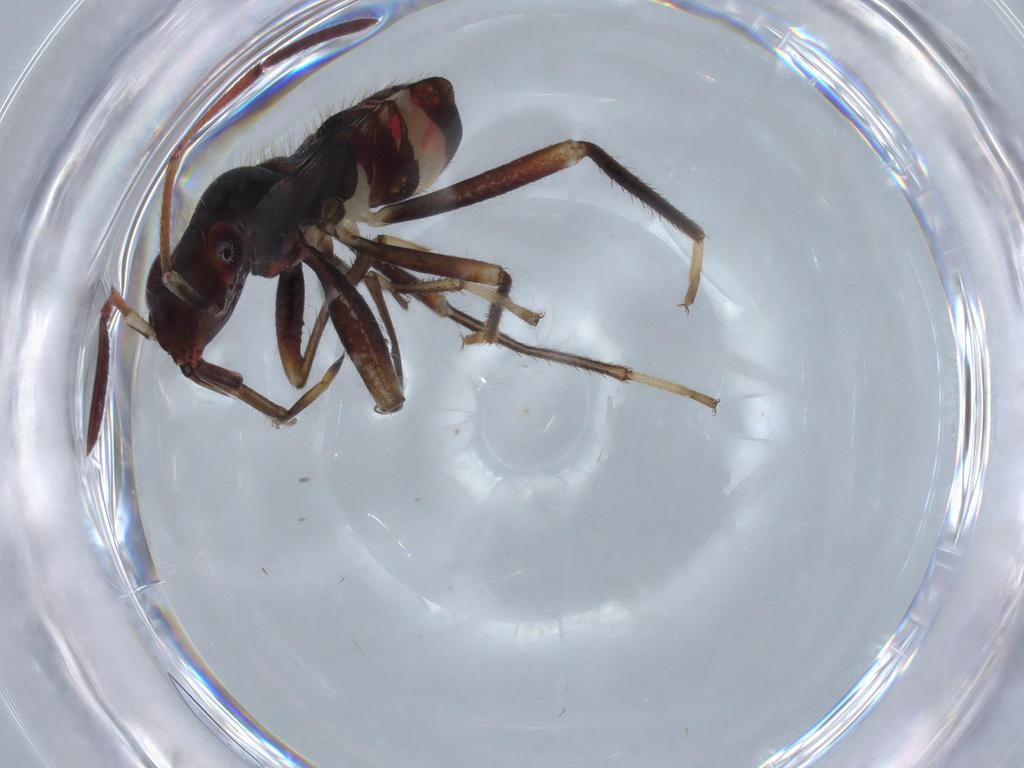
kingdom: Animalia
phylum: Arthropoda
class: Insecta
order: Hemiptera
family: Rhyparochromidae
